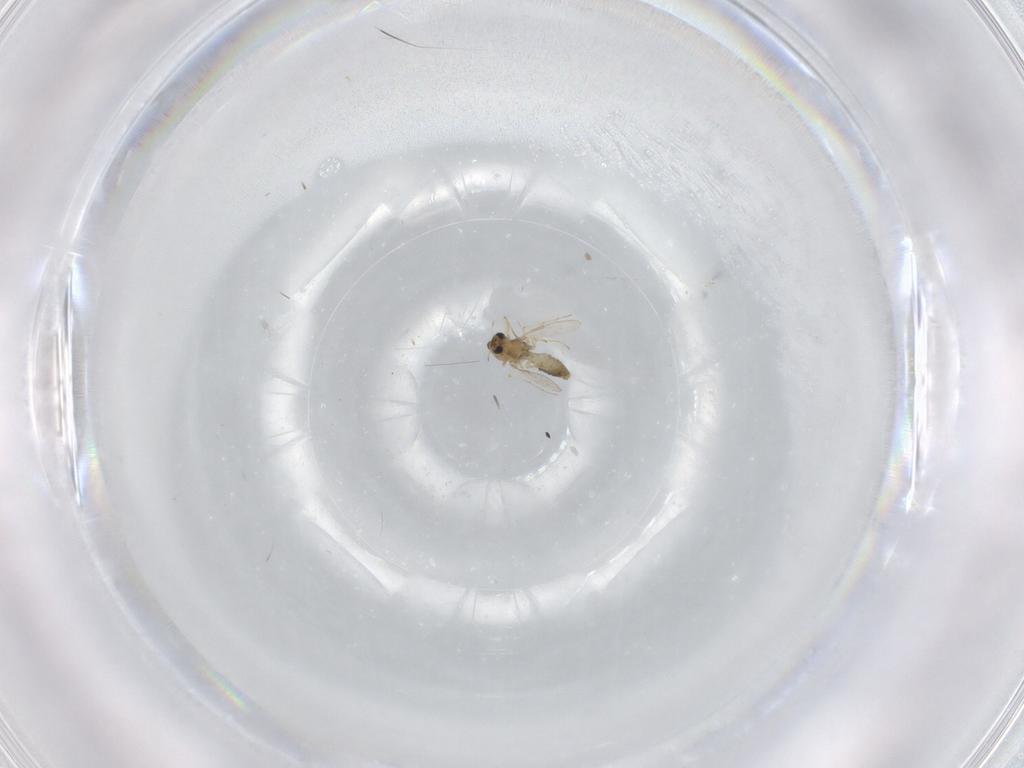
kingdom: Animalia
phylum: Arthropoda
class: Insecta
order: Diptera
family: Chironomidae
